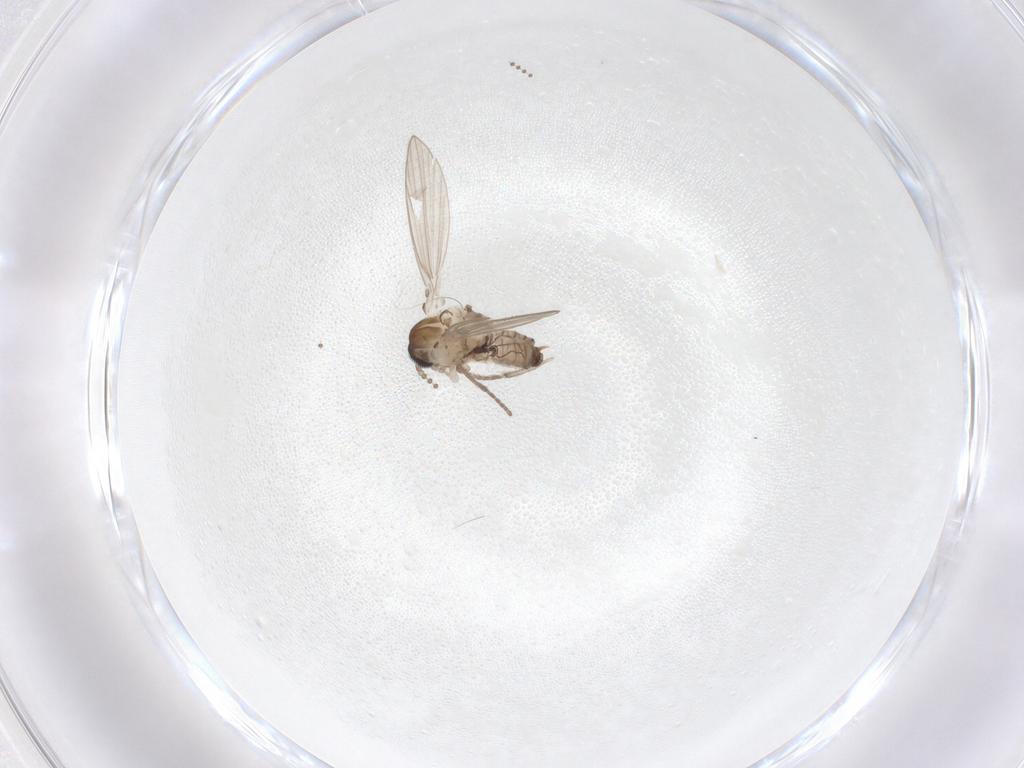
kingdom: Animalia
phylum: Arthropoda
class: Insecta
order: Diptera
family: Psychodidae
